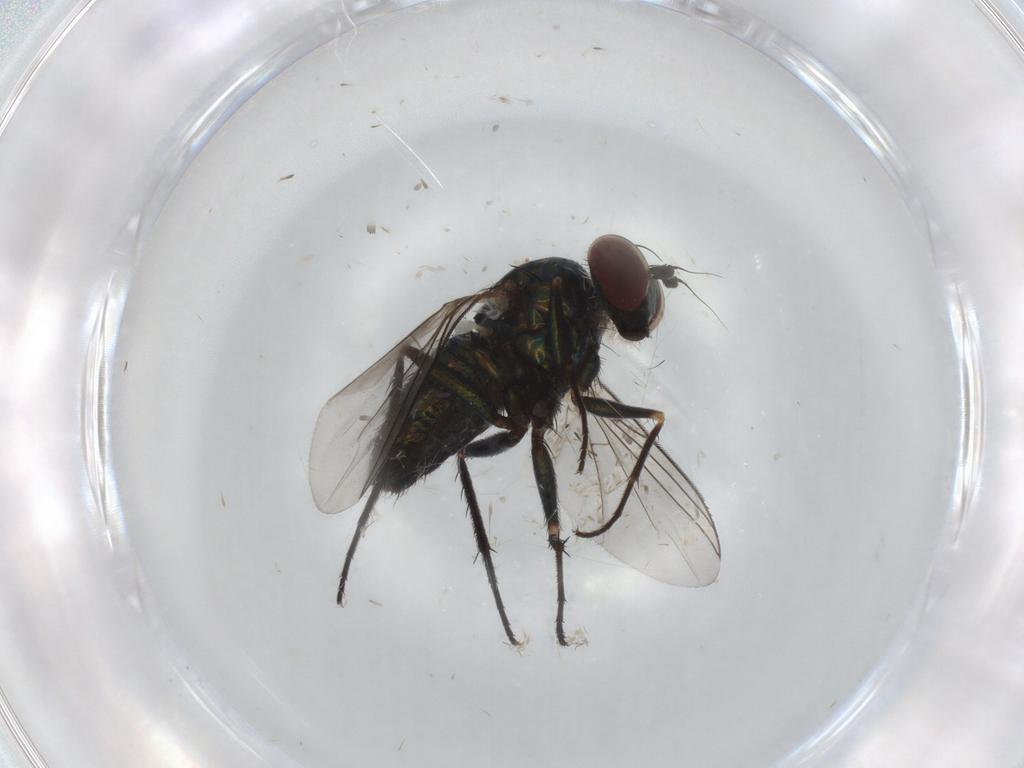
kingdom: Animalia
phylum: Arthropoda
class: Insecta
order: Diptera
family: Dolichopodidae
